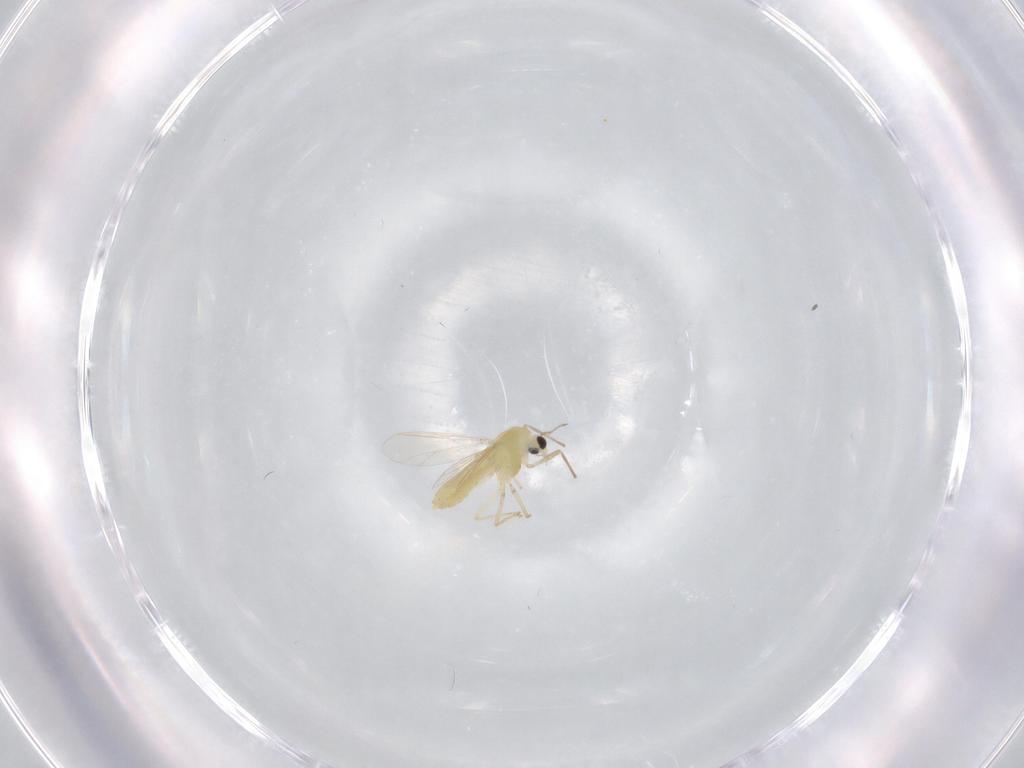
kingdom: Animalia
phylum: Arthropoda
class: Insecta
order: Diptera
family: Chironomidae
